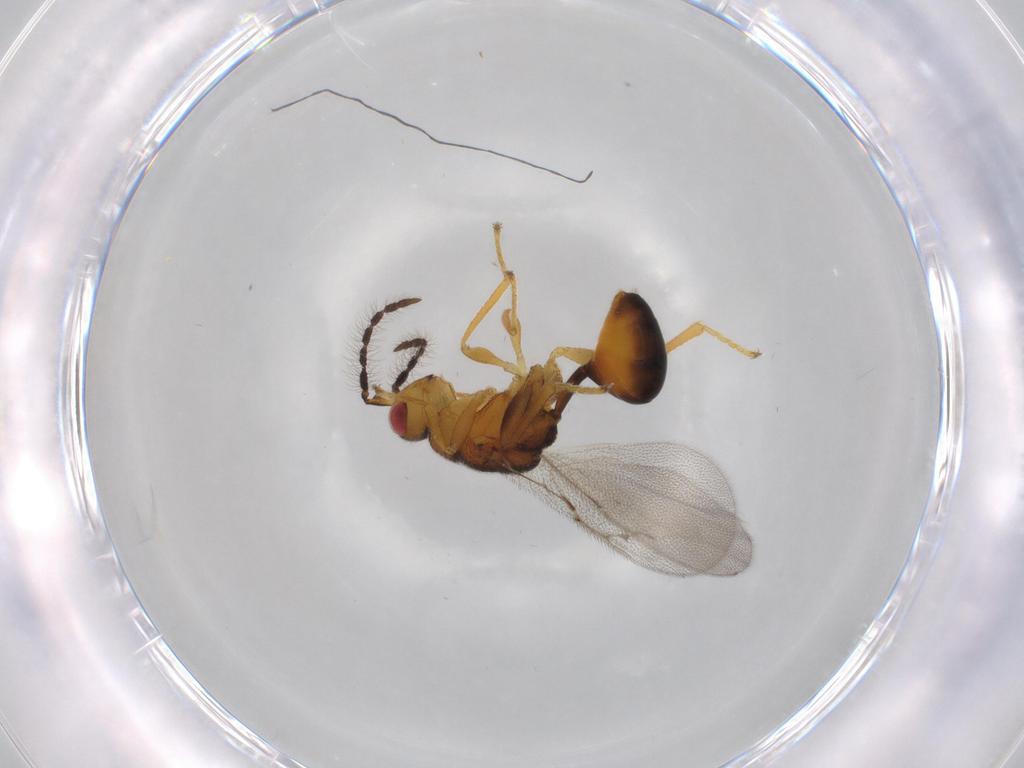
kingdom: Animalia
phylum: Arthropoda
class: Insecta
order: Hymenoptera
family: Eurytomidae
